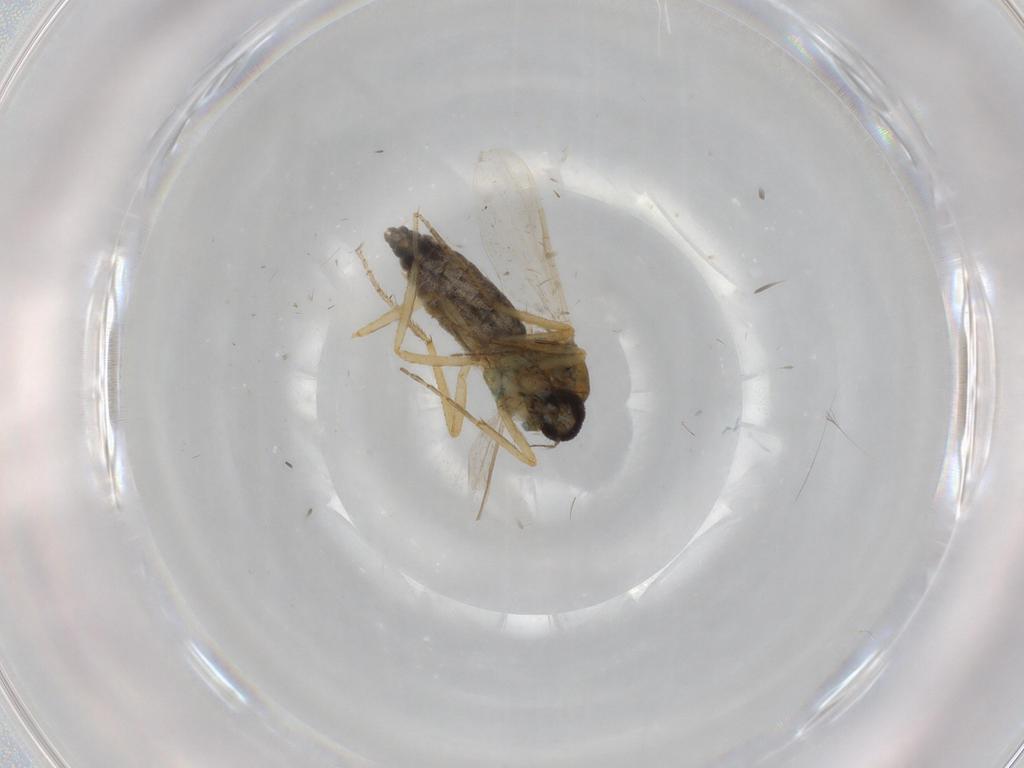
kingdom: Animalia
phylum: Arthropoda
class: Insecta
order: Diptera
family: Ceratopogonidae
